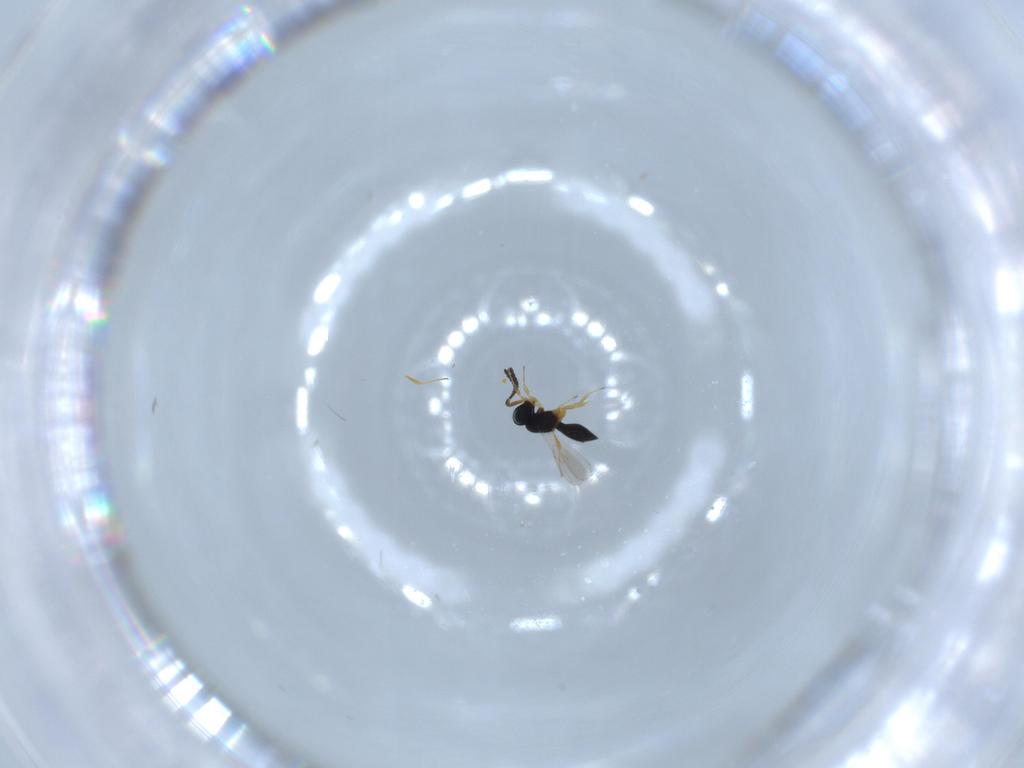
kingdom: Animalia
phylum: Arthropoda
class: Insecta
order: Hymenoptera
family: Scelionidae
